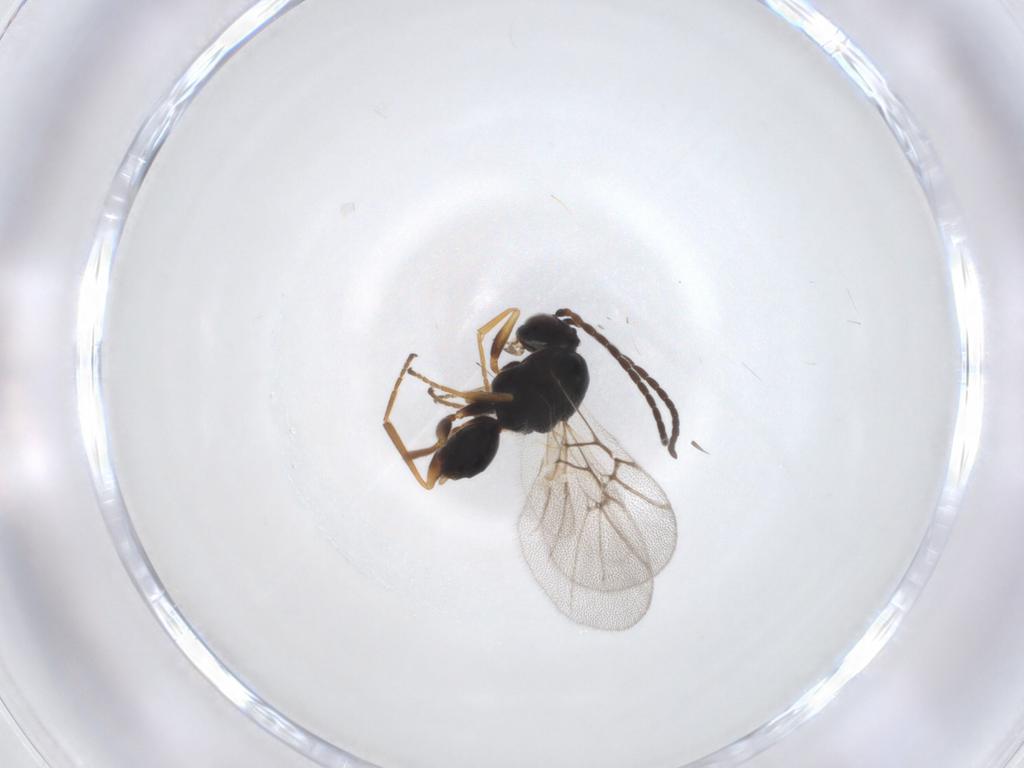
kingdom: Animalia
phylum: Arthropoda
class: Insecta
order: Hymenoptera
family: Cynipidae
